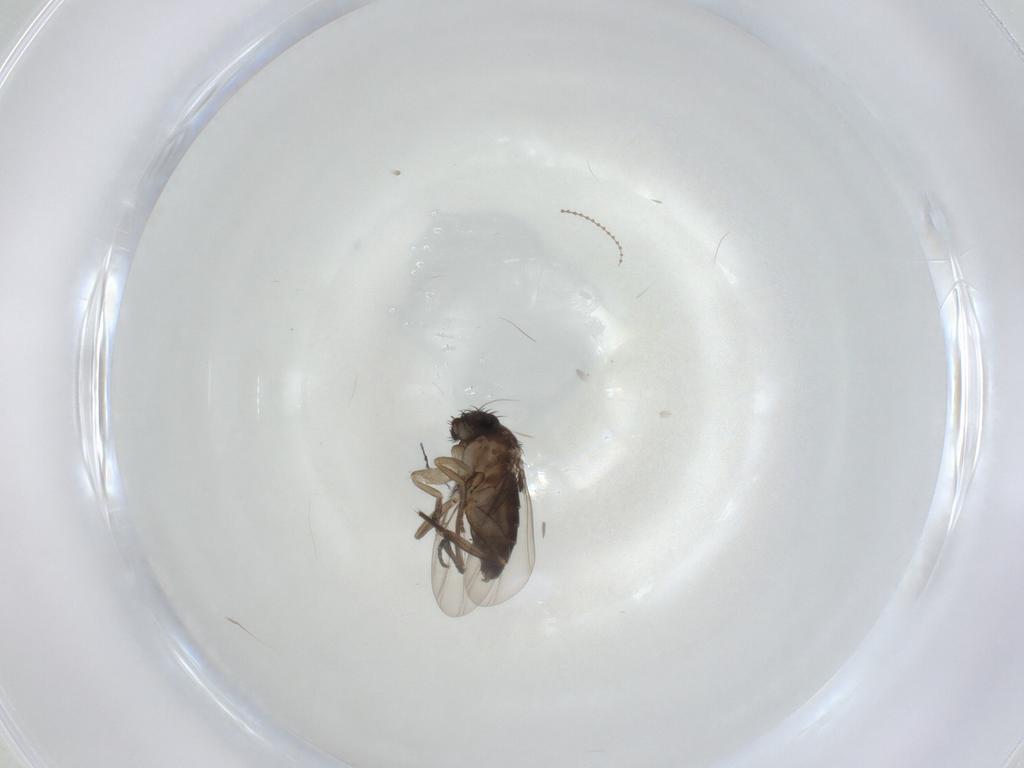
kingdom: Animalia
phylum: Arthropoda
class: Insecta
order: Diptera
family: Phoridae
